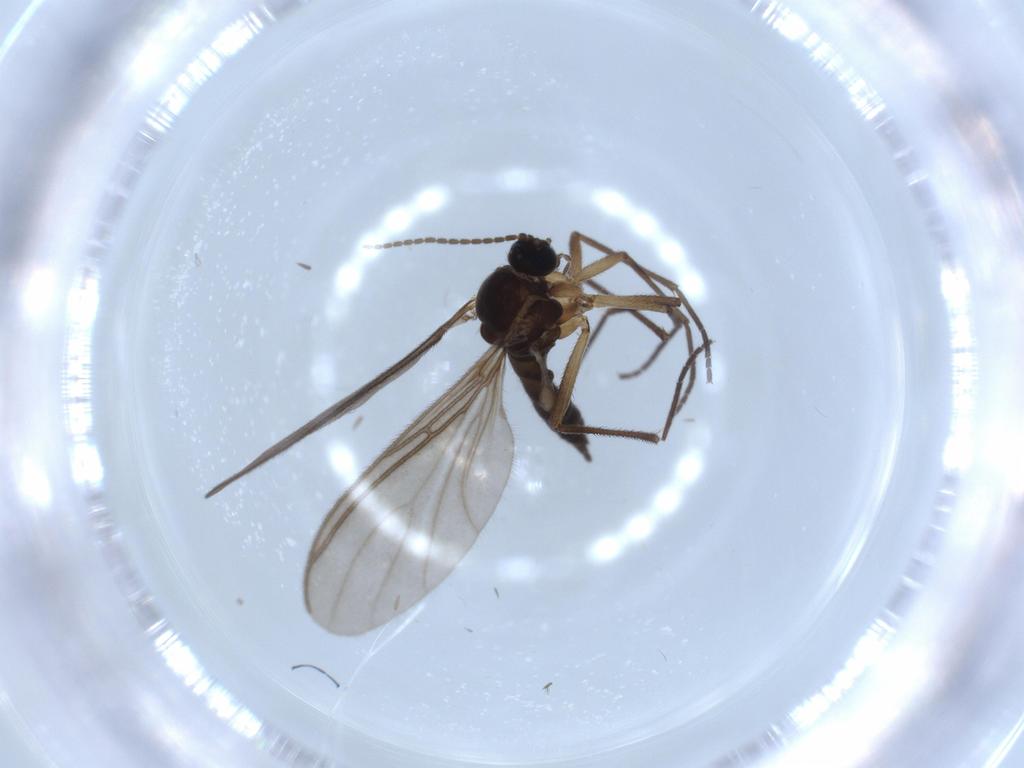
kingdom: Animalia
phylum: Arthropoda
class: Insecta
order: Diptera
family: Sciaridae
